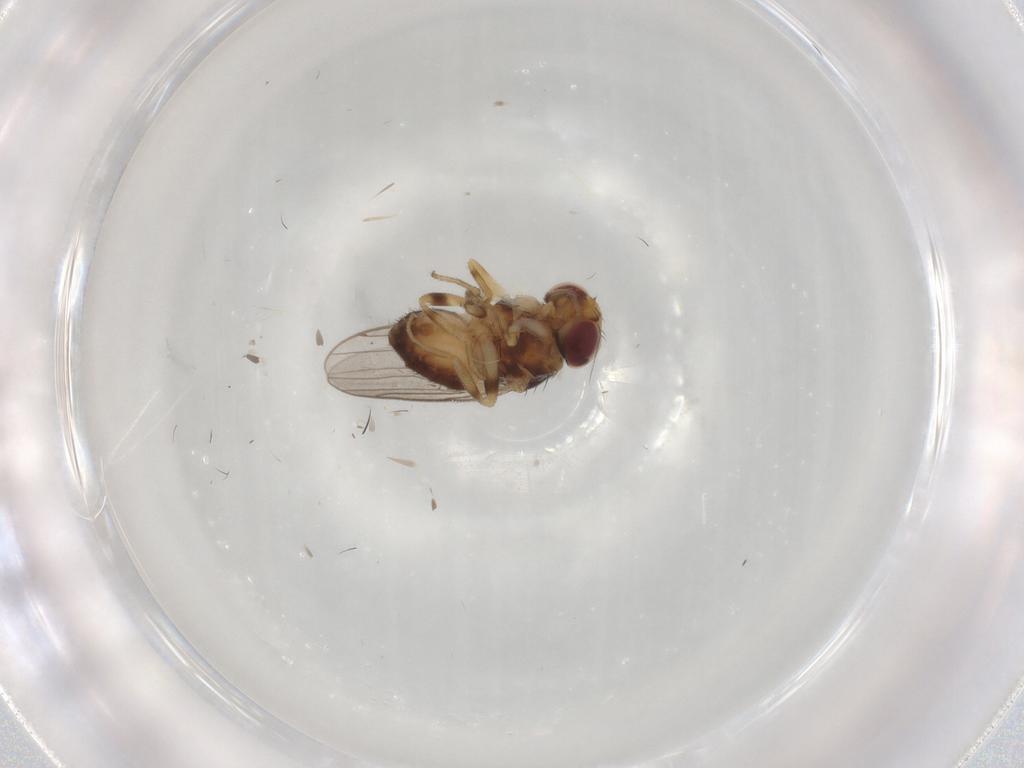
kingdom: Animalia
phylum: Arthropoda
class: Insecta
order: Diptera
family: Chloropidae
